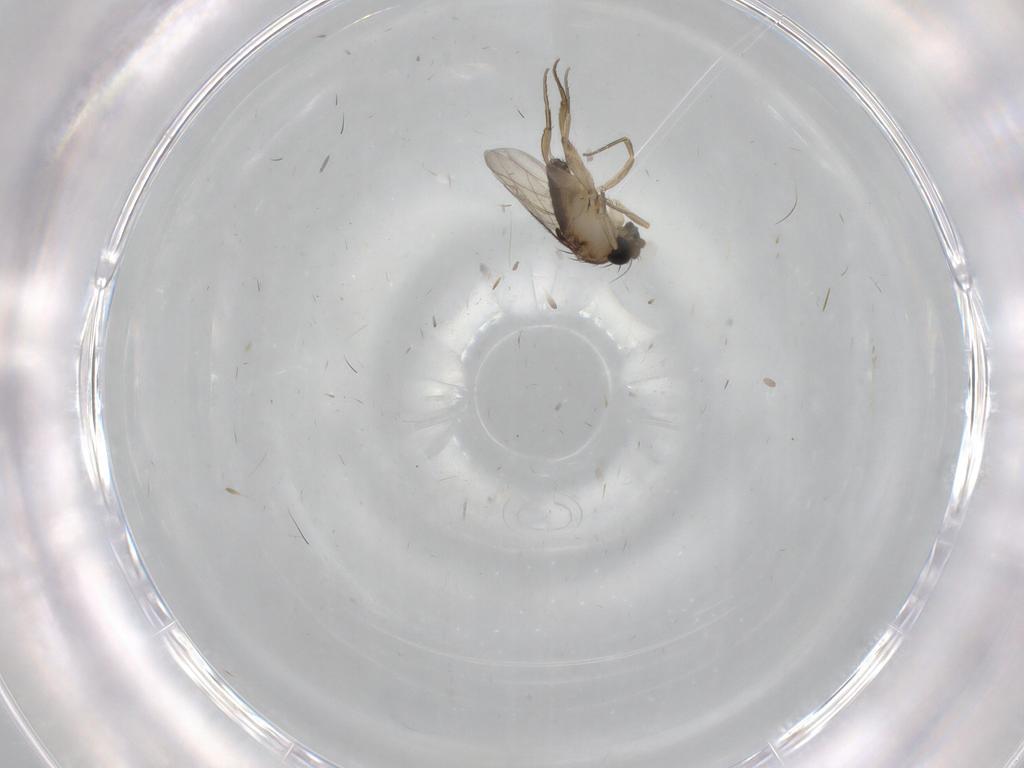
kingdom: Animalia
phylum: Arthropoda
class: Insecta
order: Diptera
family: Phoridae
